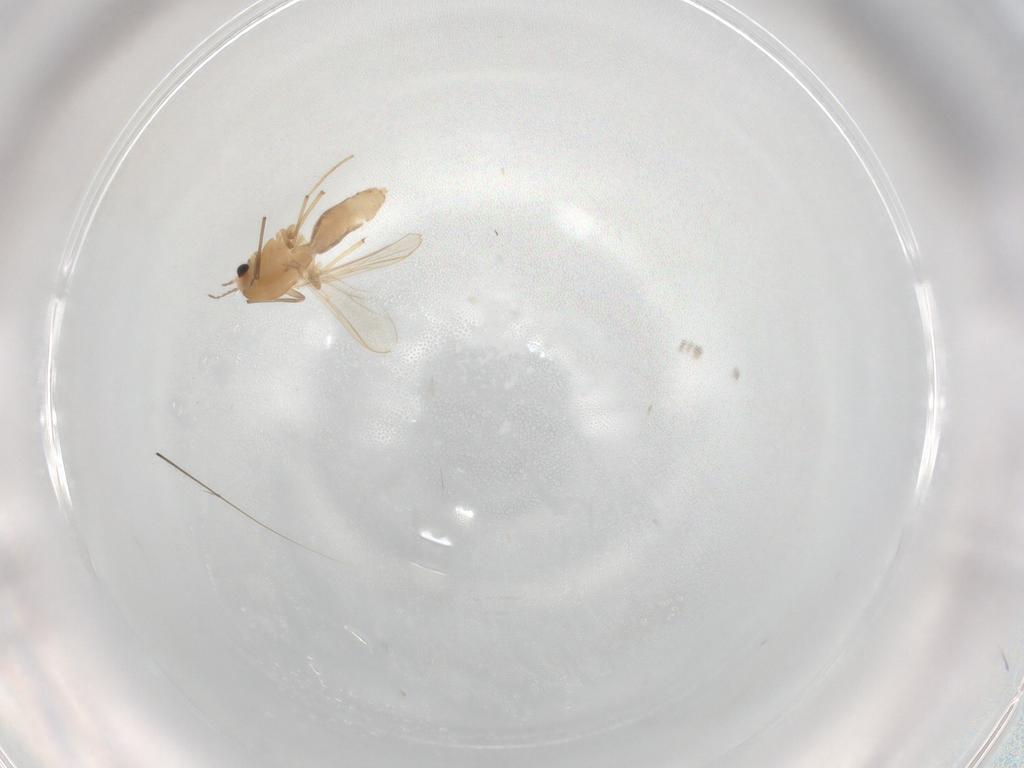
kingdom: Animalia
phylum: Arthropoda
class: Insecta
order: Diptera
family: Chironomidae
